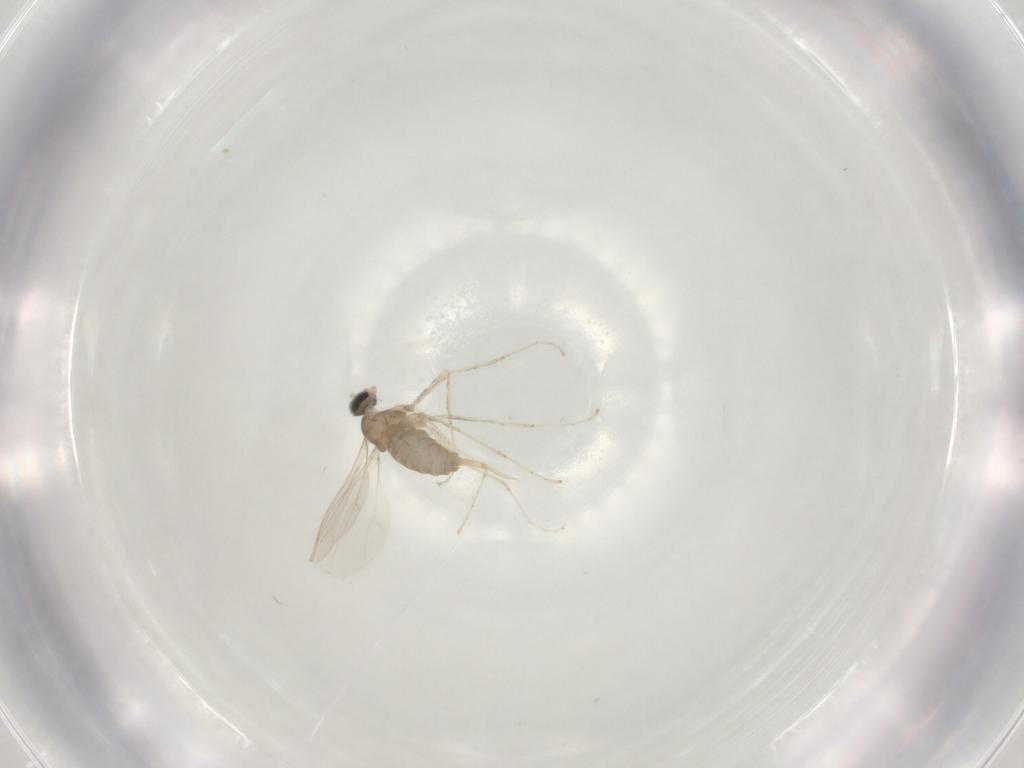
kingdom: Animalia
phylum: Arthropoda
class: Insecta
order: Diptera
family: Cecidomyiidae
